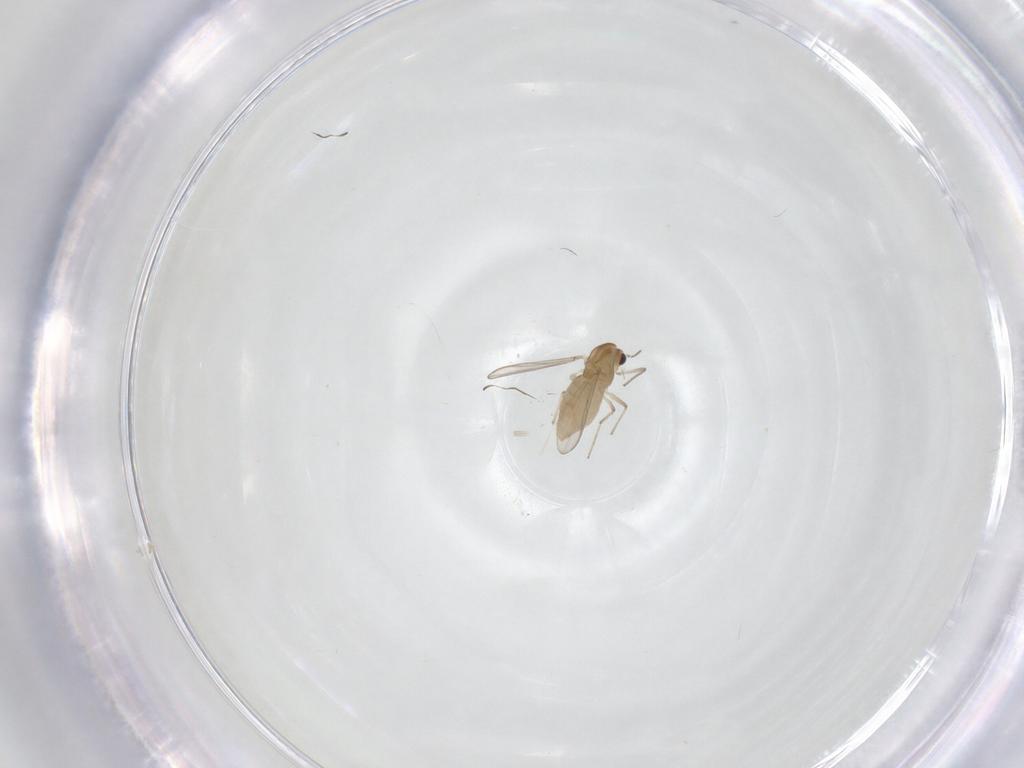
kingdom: Animalia
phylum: Arthropoda
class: Insecta
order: Diptera
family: Chironomidae
